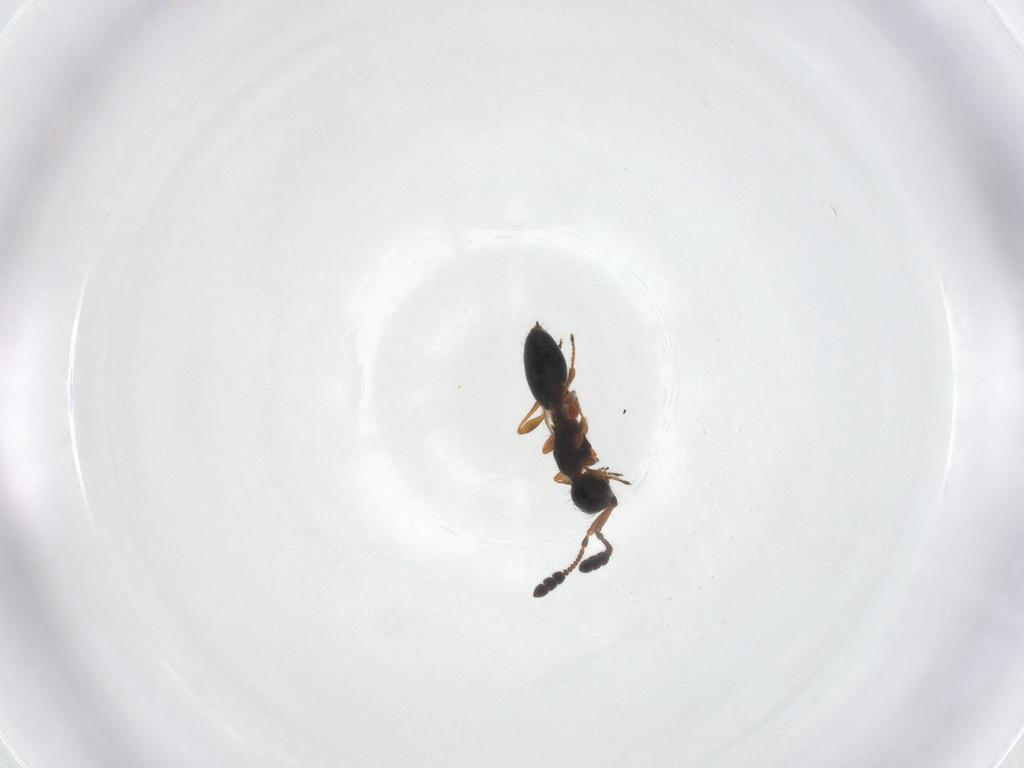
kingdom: Animalia
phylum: Arthropoda
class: Insecta
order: Hymenoptera
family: Diapriidae
